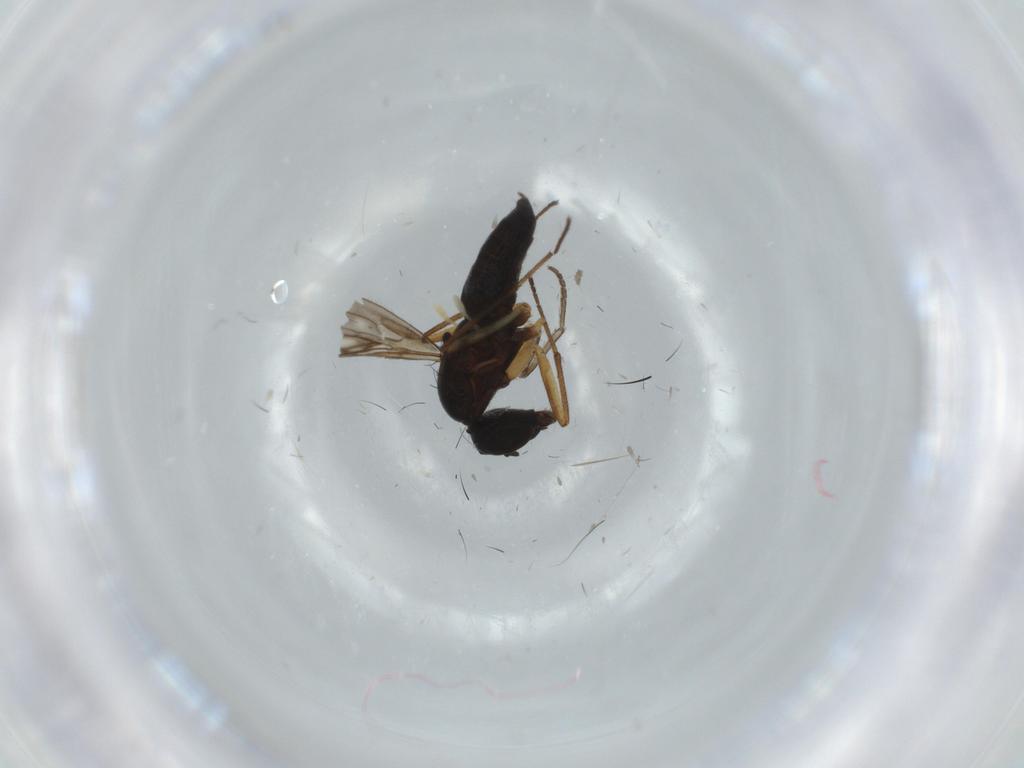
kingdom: Animalia
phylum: Arthropoda
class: Insecta
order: Diptera
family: Psychodidae
